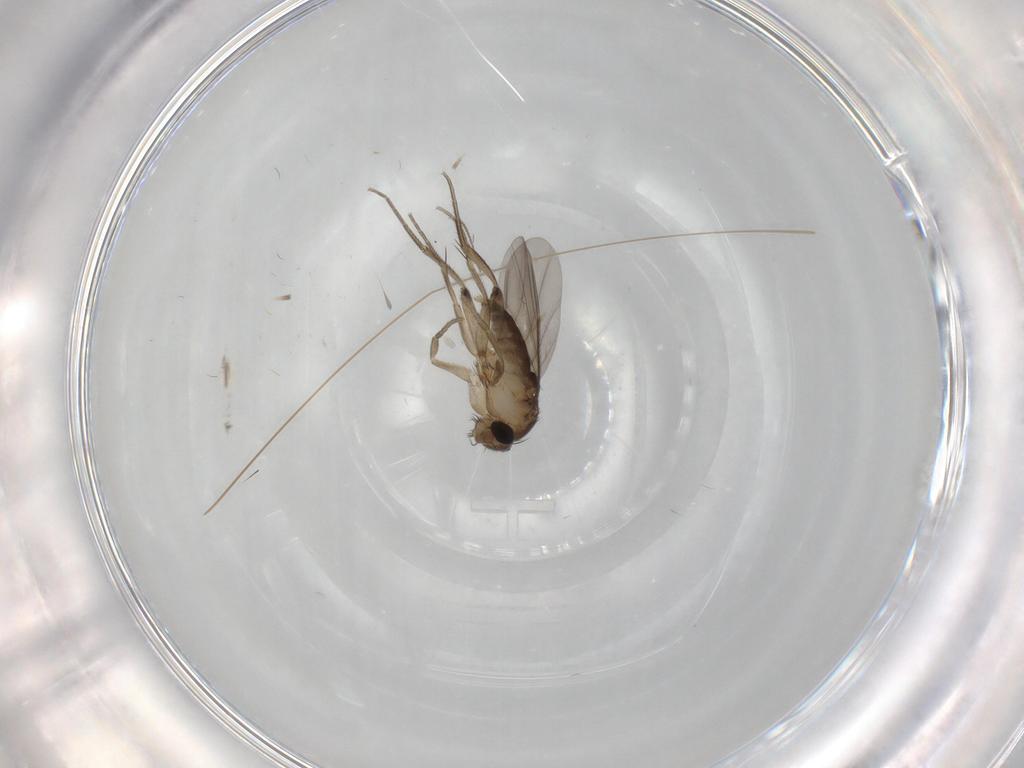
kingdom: Animalia
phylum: Arthropoda
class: Insecta
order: Diptera
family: Phoridae
